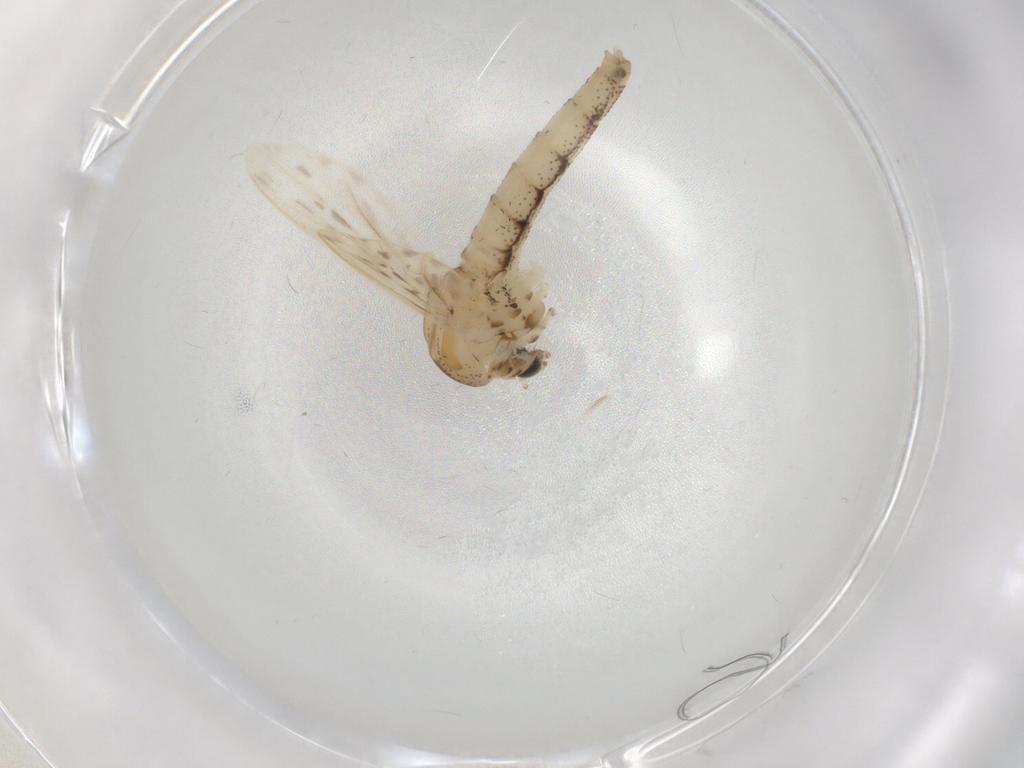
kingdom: Animalia
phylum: Arthropoda
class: Insecta
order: Diptera
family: Chaoboridae
